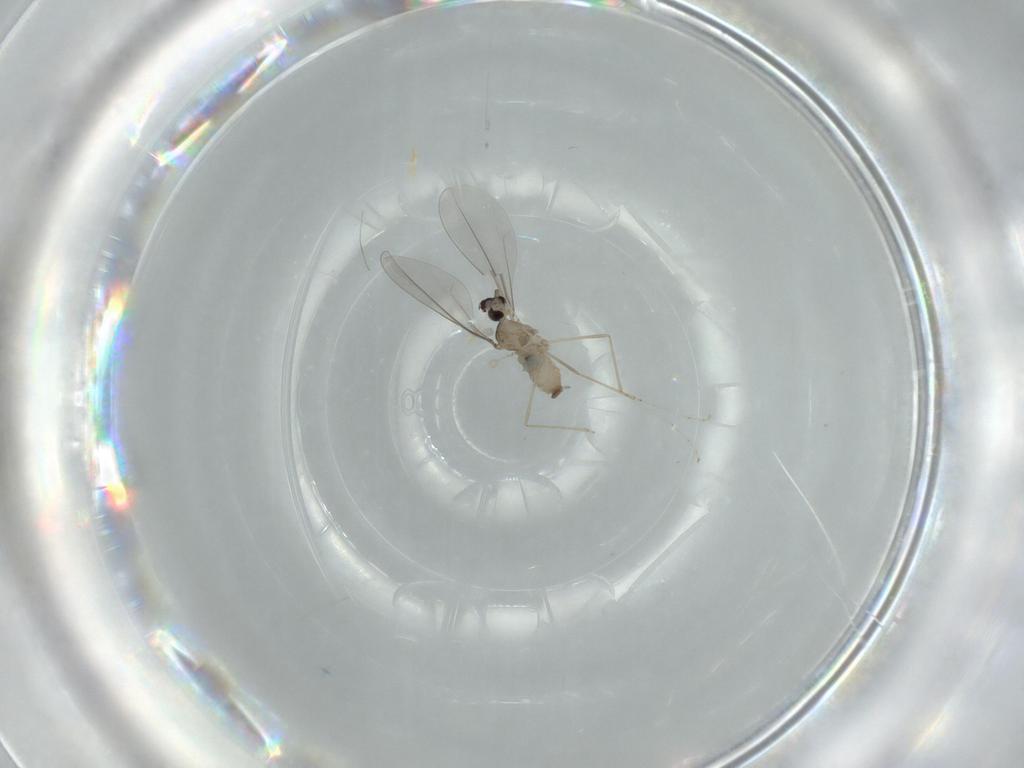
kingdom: Animalia
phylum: Arthropoda
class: Insecta
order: Diptera
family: Cecidomyiidae
